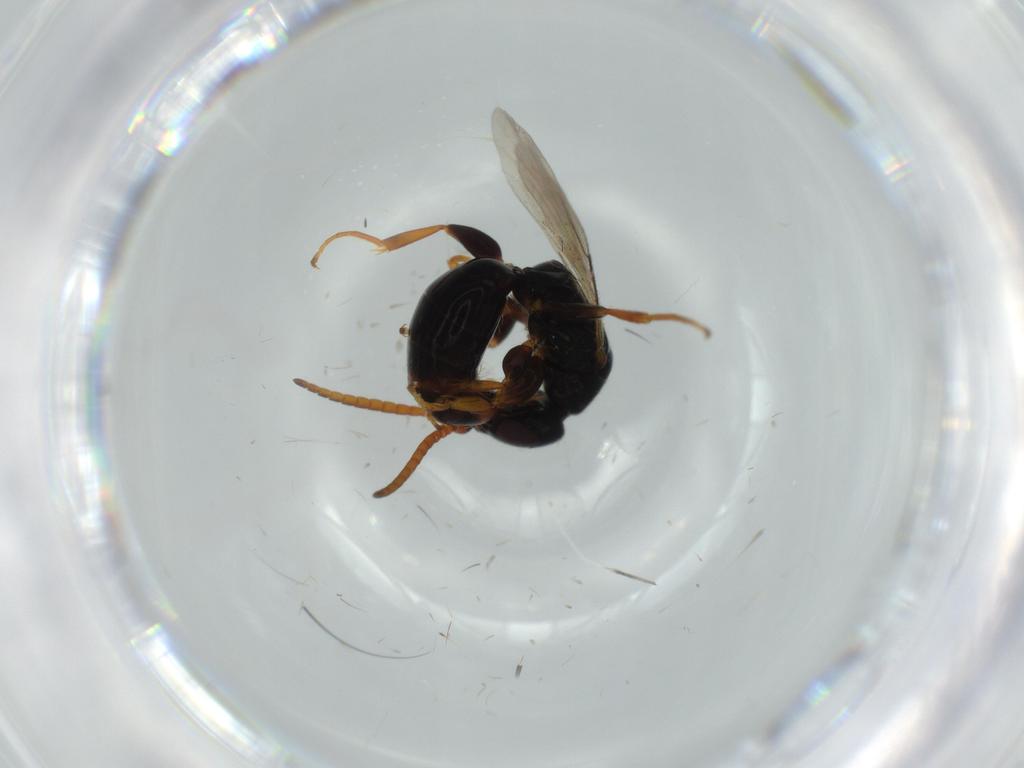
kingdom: Animalia
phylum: Arthropoda
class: Insecta
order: Hymenoptera
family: Bethylidae
